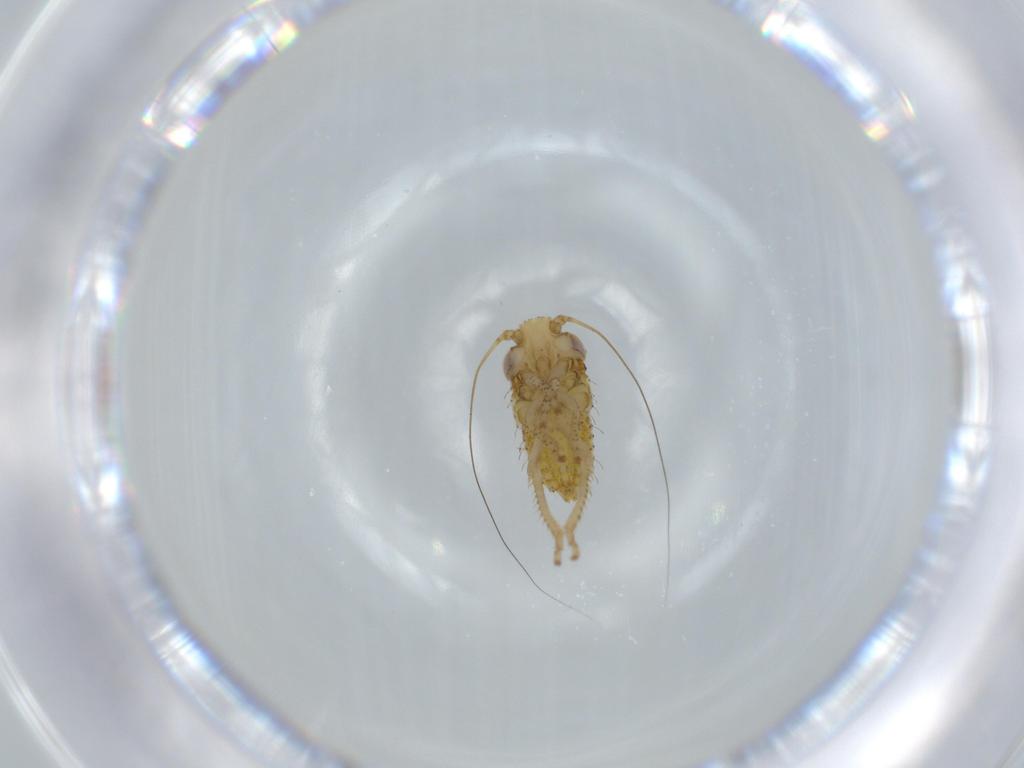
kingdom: Animalia
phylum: Arthropoda
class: Insecta
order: Hemiptera
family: Cicadellidae
